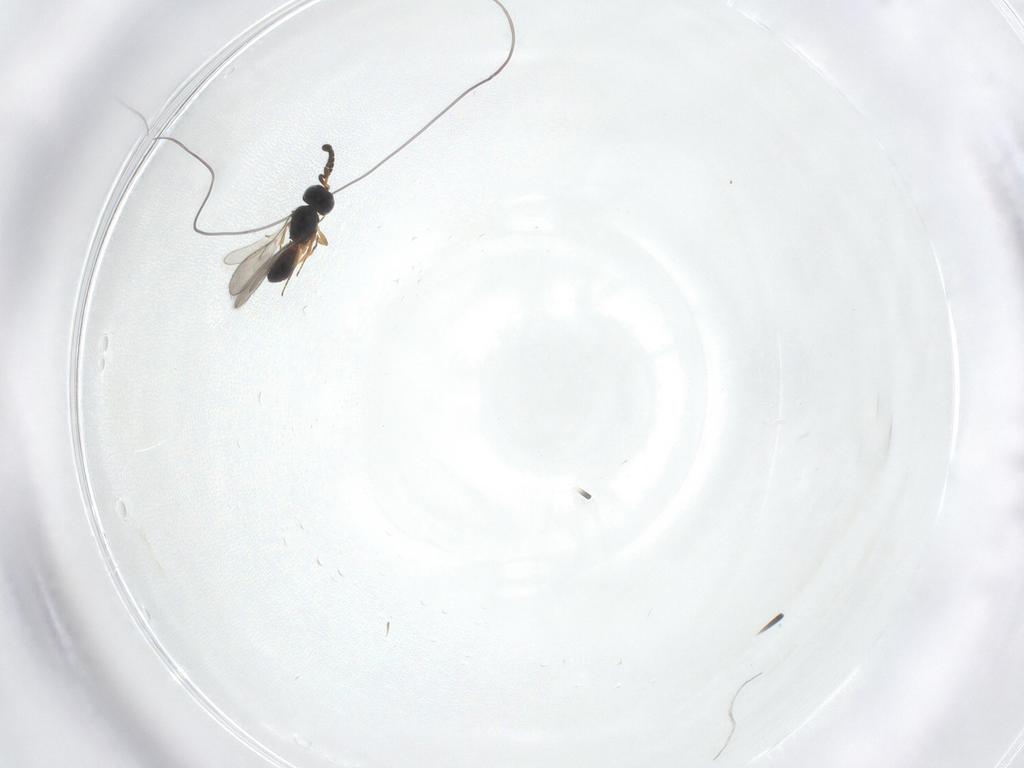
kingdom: Animalia
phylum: Arthropoda
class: Insecta
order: Hymenoptera
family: Scelionidae
